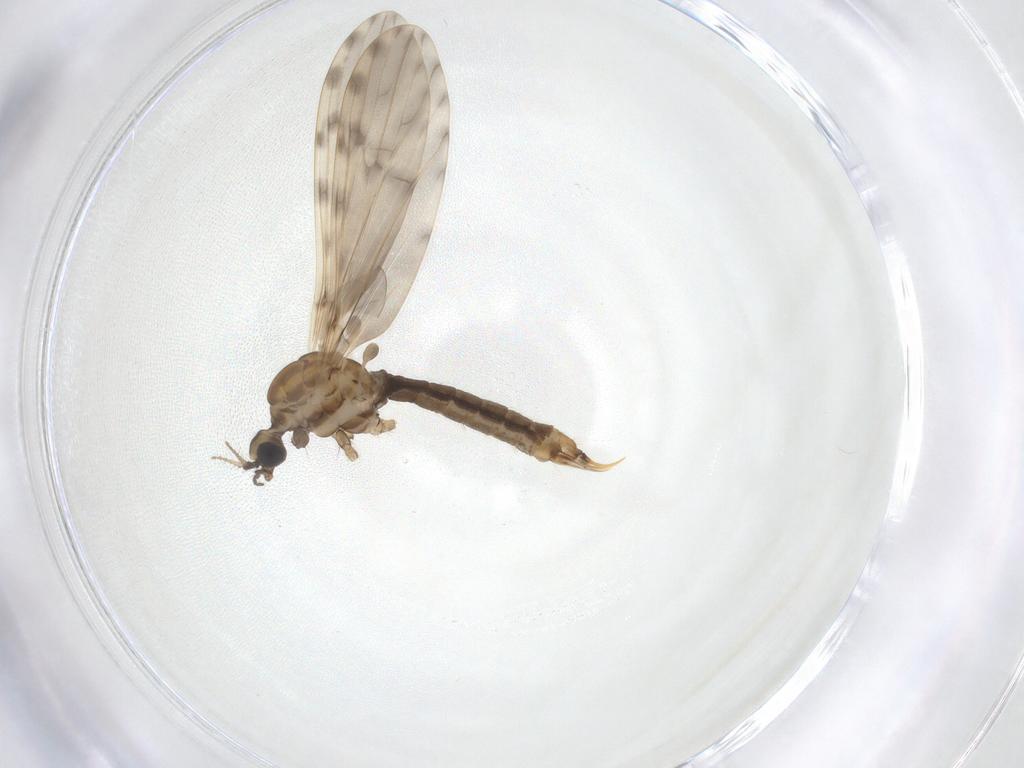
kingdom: Animalia
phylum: Arthropoda
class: Insecta
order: Diptera
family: Limoniidae
